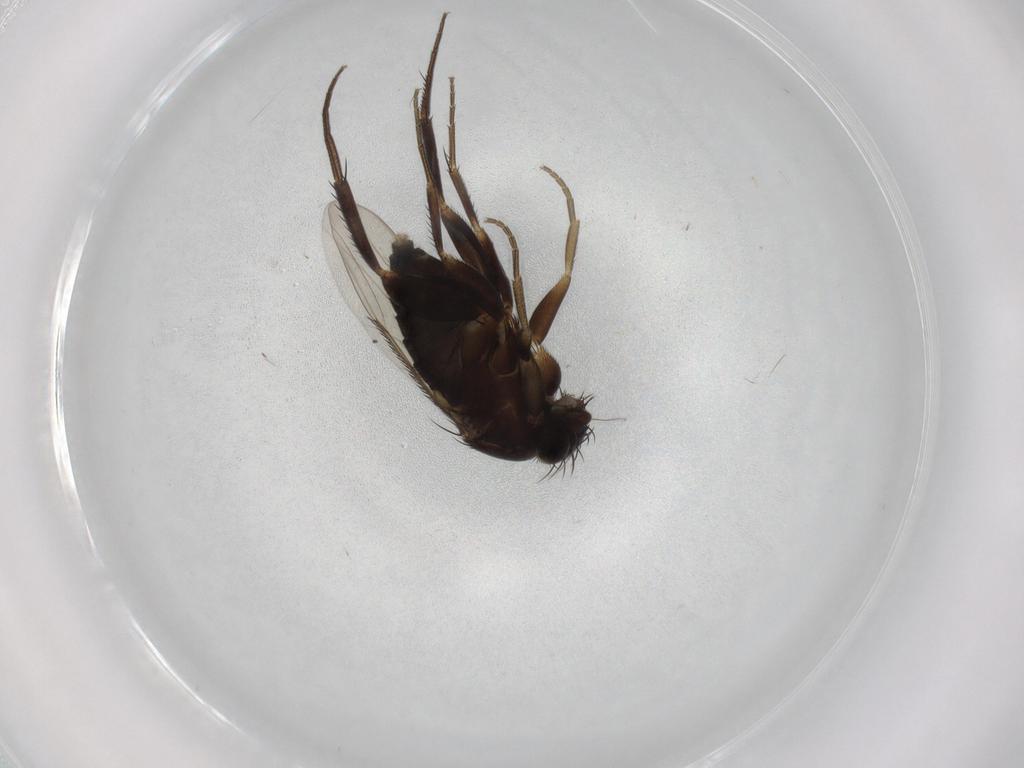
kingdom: Animalia
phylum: Arthropoda
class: Insecta
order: Diptera
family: Phoridae
